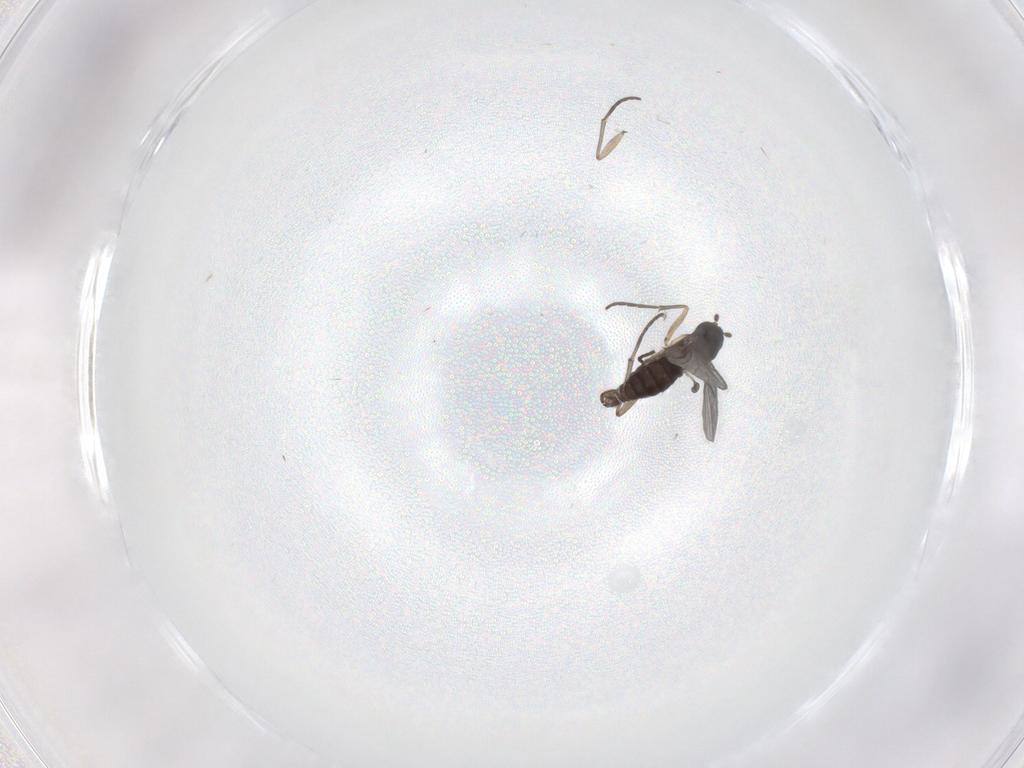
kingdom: Animalia
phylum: Arthropoda
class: Insecta
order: Diptera
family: Sciaridae
